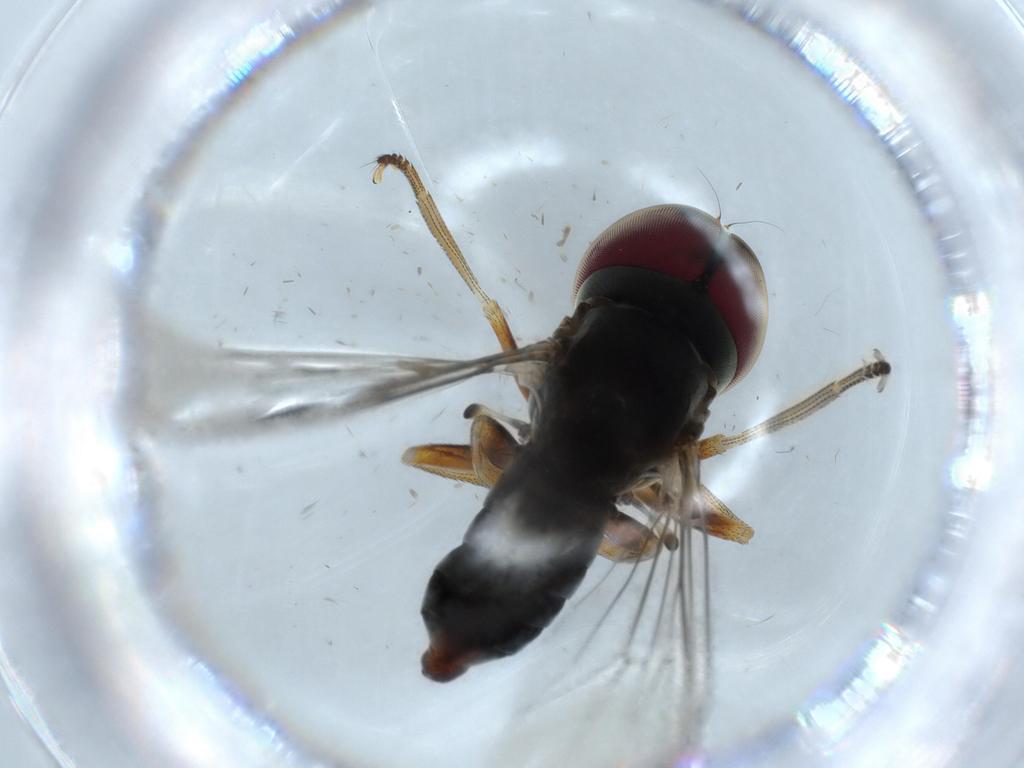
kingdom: Animalia
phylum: Arthropoda
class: Insecta
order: Diptera
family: Pipunculidae
